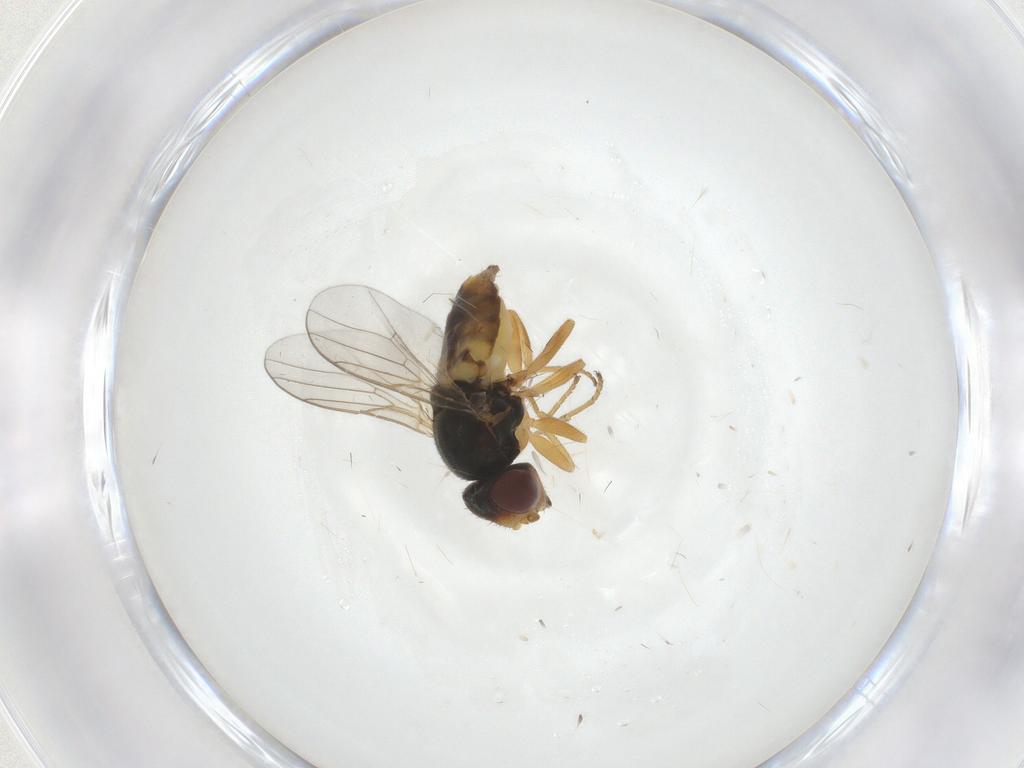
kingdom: Animalia
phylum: Arthropoda
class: Insecta
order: Diptera
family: Chloropidae
